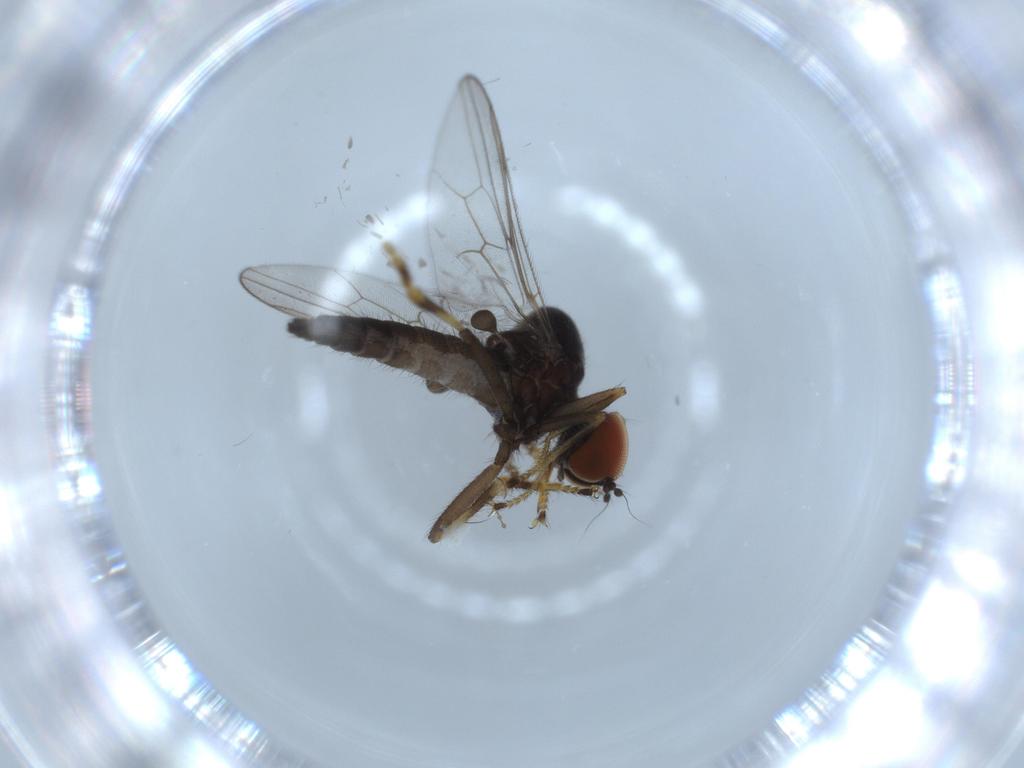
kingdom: Animalia
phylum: Arthropoda
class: Insecta
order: Diptera
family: Hybotidae
